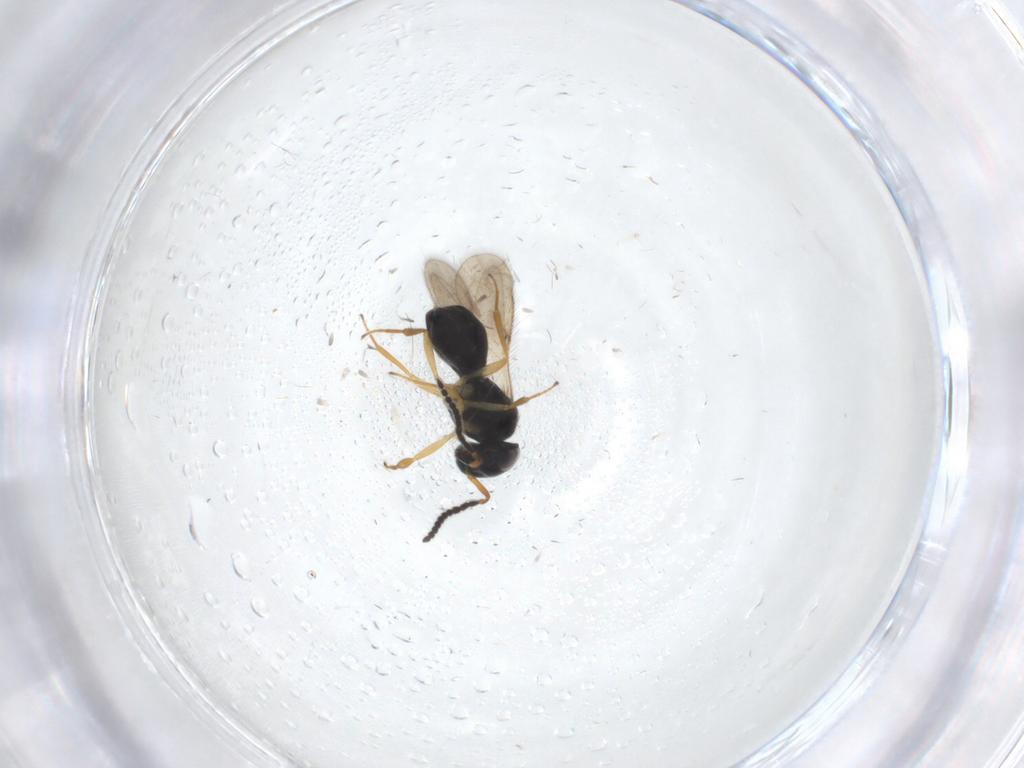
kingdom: Animalia
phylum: Arthropoda
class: Insecta
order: Hymenoptera
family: Scelionidae
